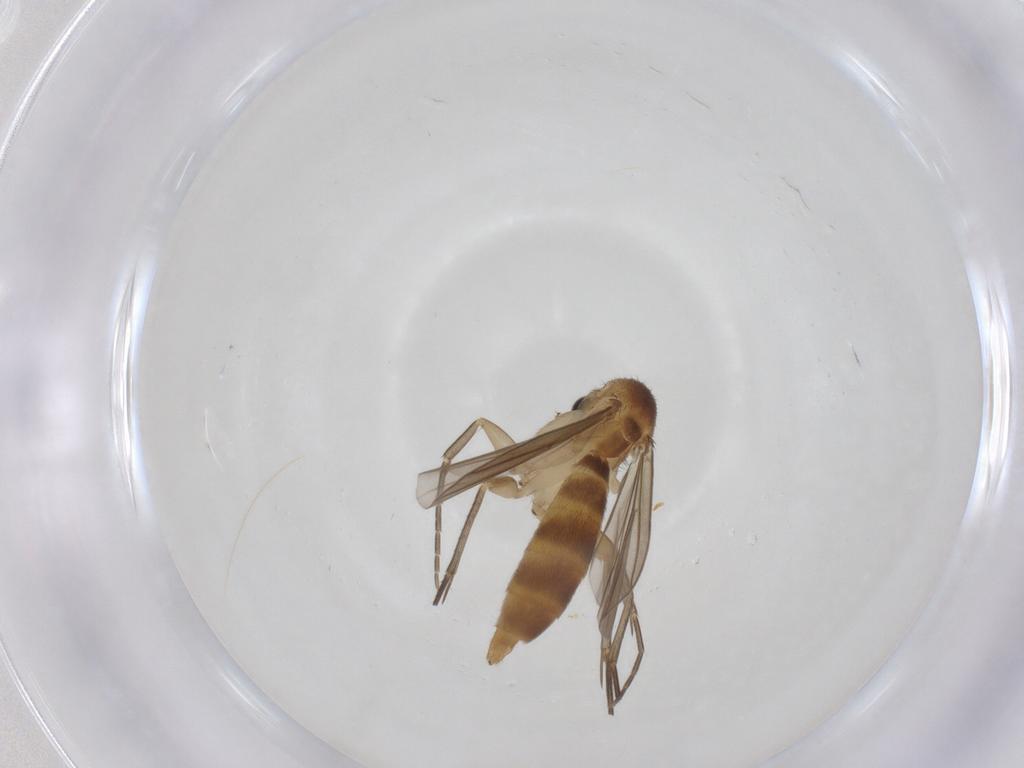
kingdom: Animalia
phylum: Arthropoda
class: Insecta
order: Diptera
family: Mycetophilidae
